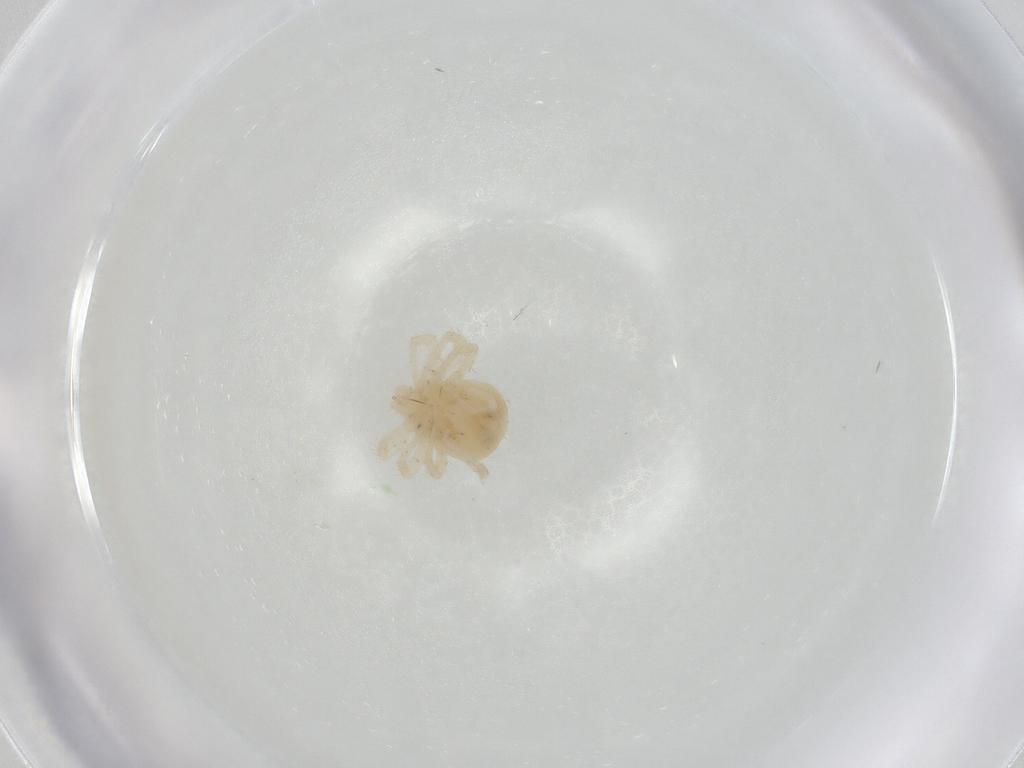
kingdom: Animalia
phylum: Arthropoda
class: Arachnida
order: Trombidiformes
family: Anystidae
